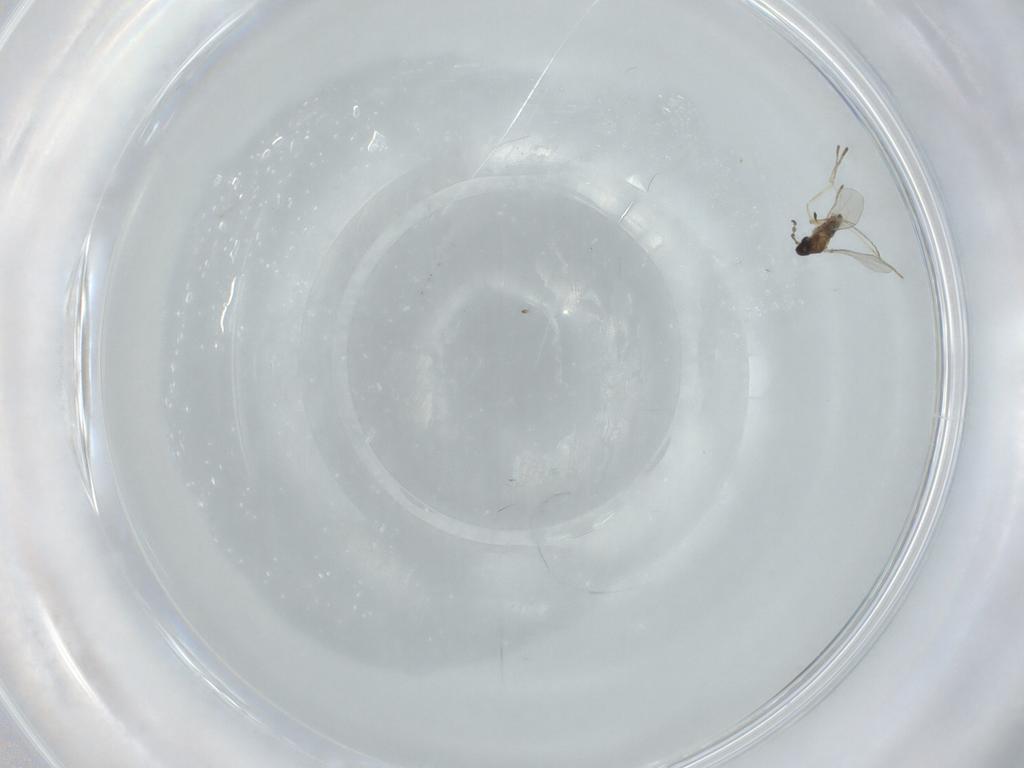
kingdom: Animalia
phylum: Arthropoda
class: Insecta
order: Diptera
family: Cecidomyiidae
